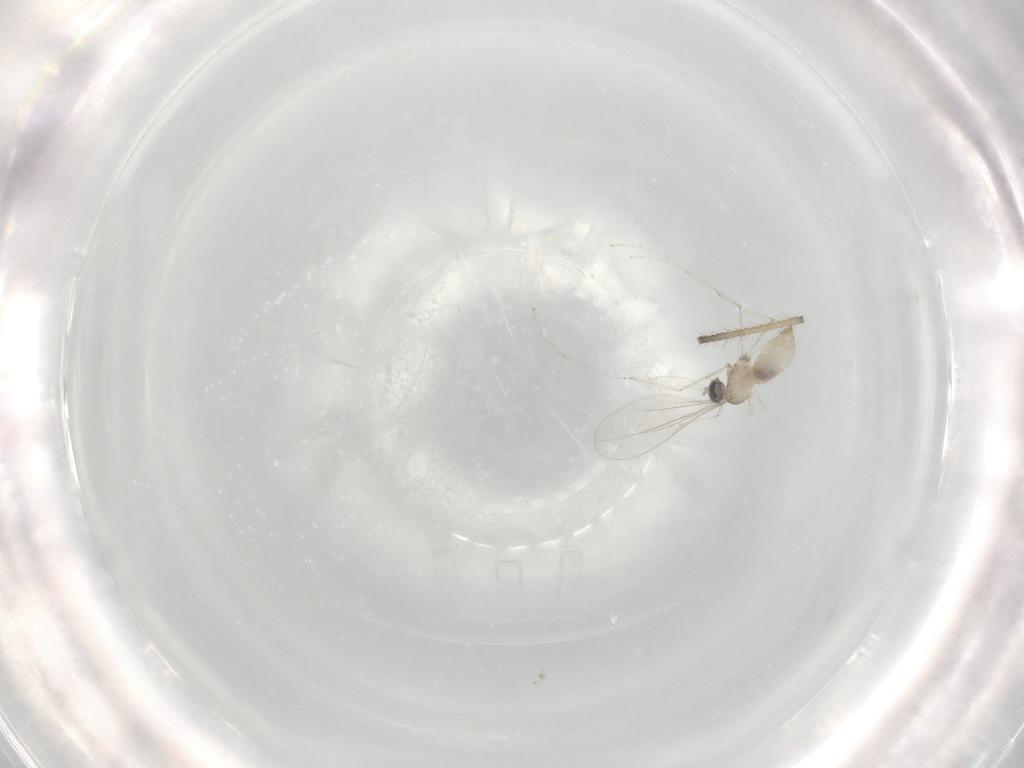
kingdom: Animalia
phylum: Arthropoda
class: Insecta
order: Diptera
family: Cecidomyiidae
